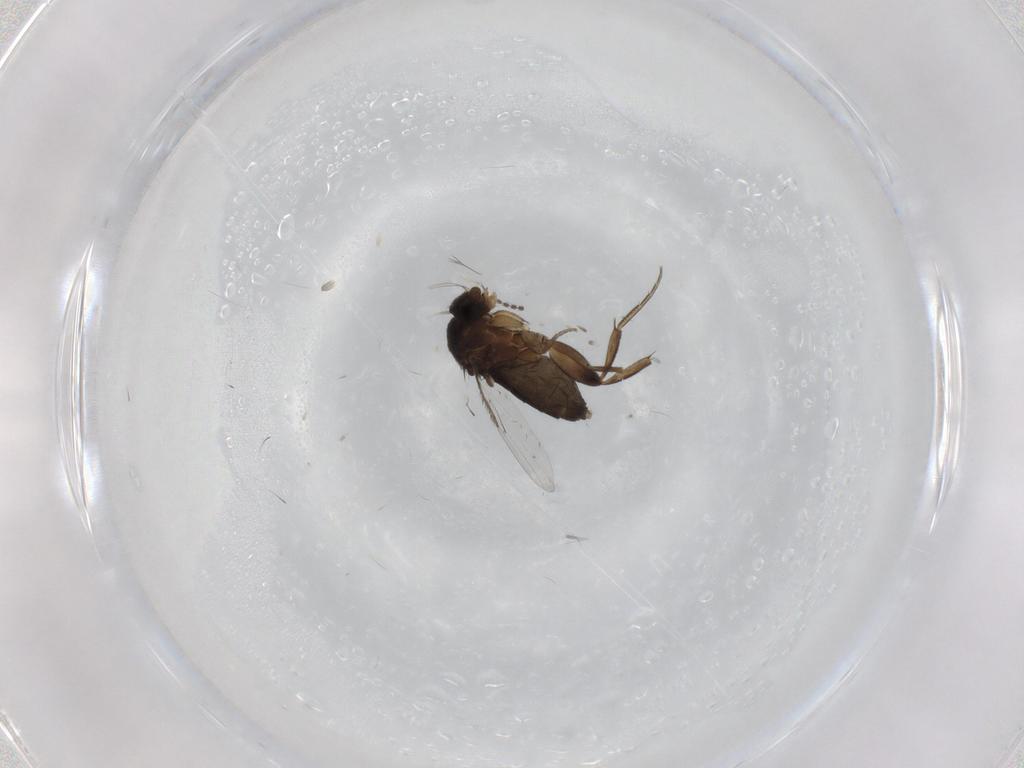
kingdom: Animalia
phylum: Arthropoda
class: Insecta
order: Diptera
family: Phoridae
